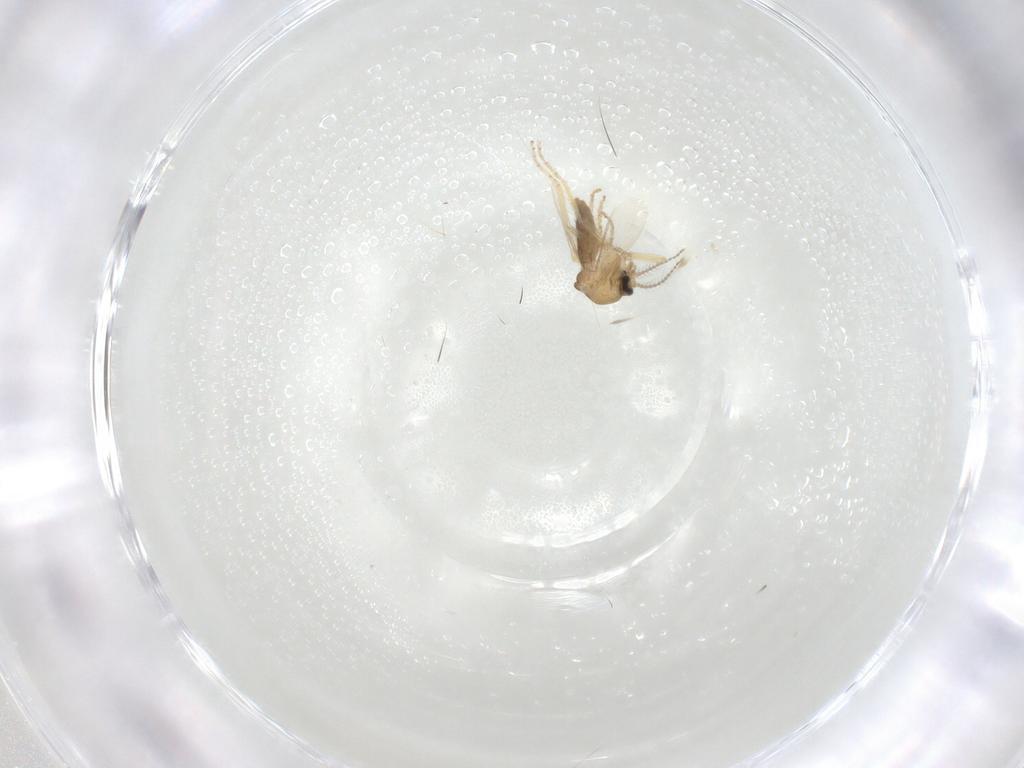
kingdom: Animalia
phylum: Arthropoda
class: Insecta
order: Diptera
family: Ceratopogonidae
